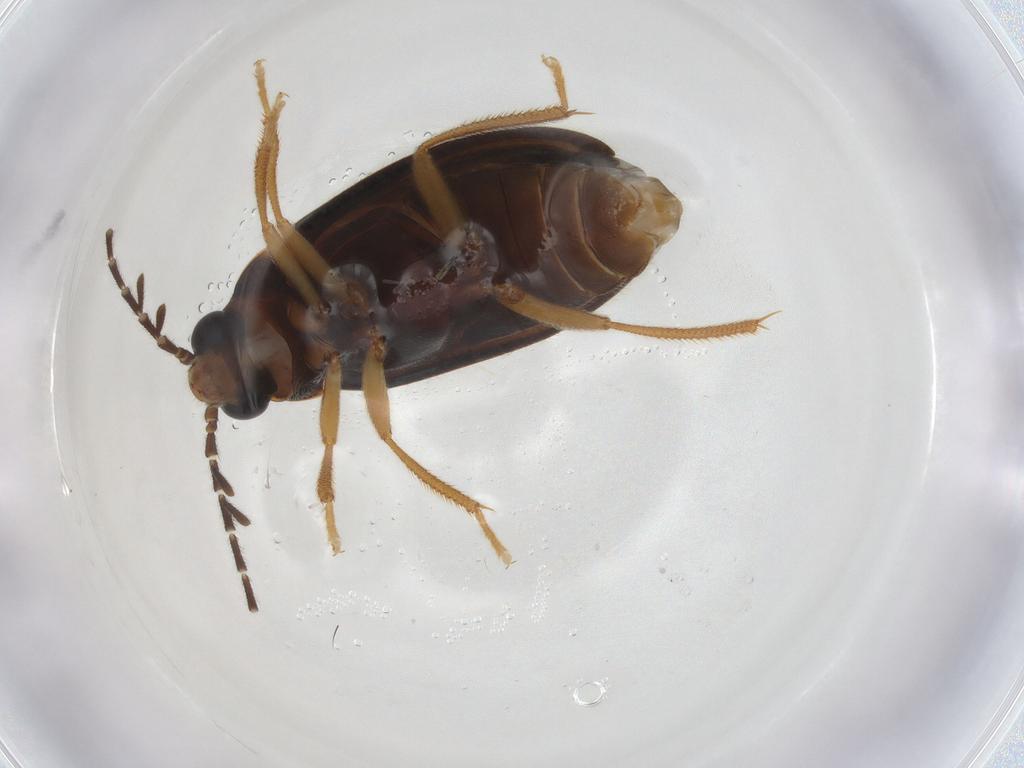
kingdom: Animalia
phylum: Arthropoda
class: Insecta
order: Coleoptera
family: Ptilodactylidae
